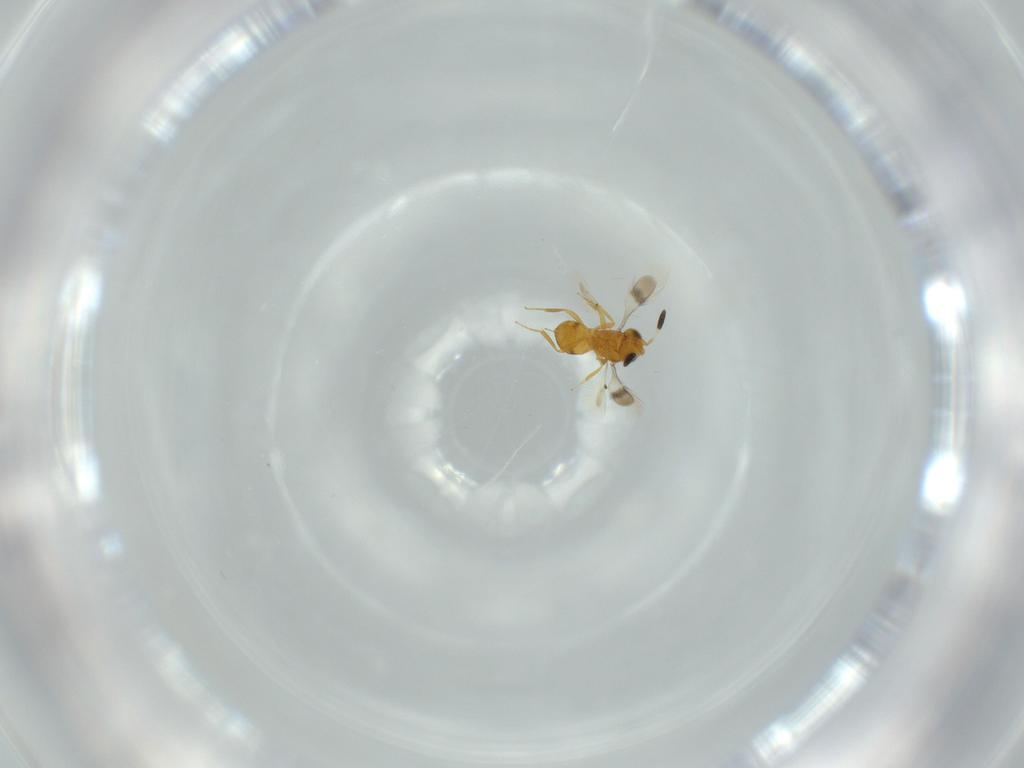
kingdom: Animalia
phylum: Arthropoda
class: Insecta
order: Hymenoptera
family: Scelionidae
